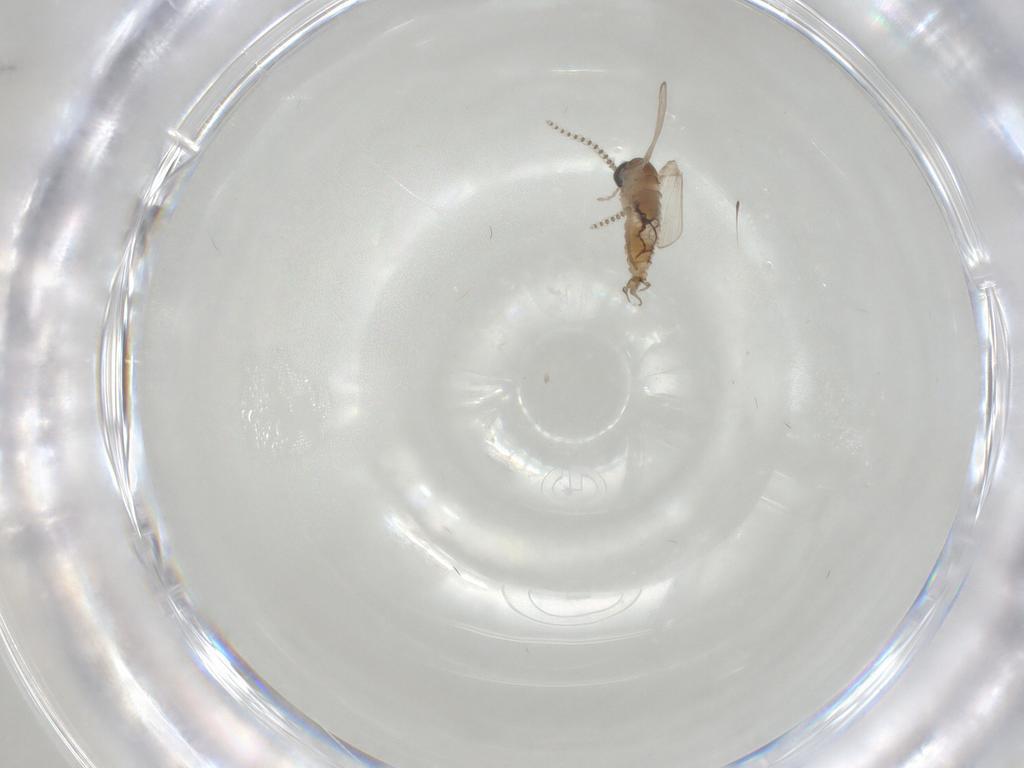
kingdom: Animalia
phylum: Arthropoda
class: Insecta
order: Diptera
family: Psychodidae
